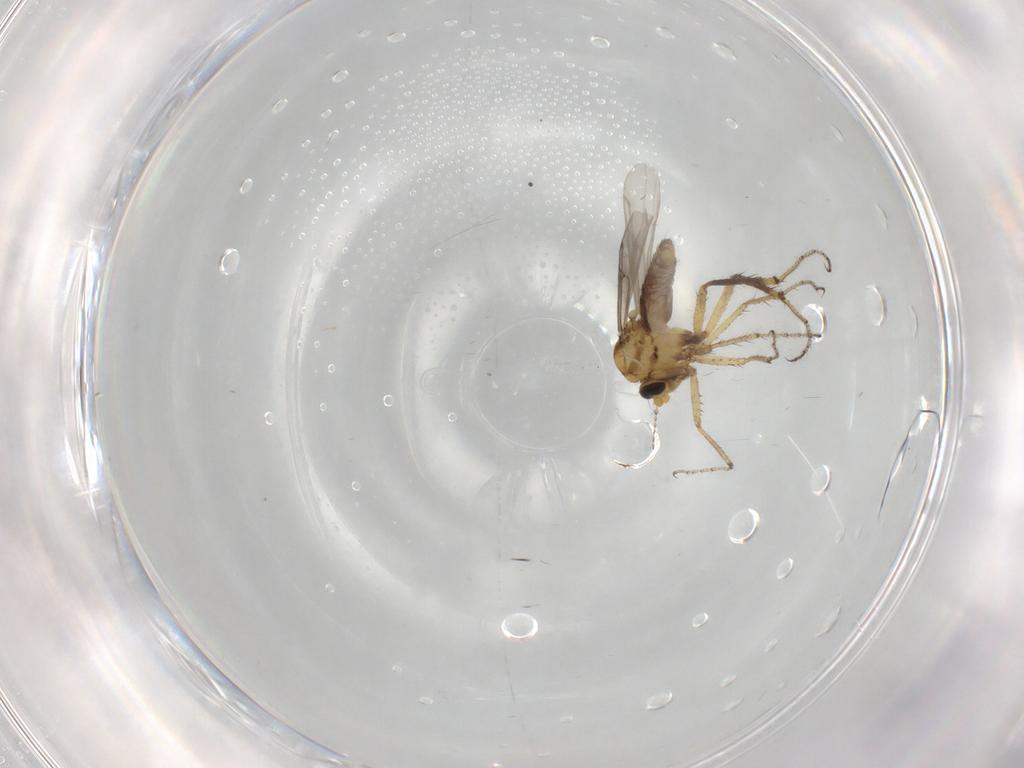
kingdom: Animalia
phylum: Arthropoda
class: Insecta
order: Diptera
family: Ceratopogonidae
